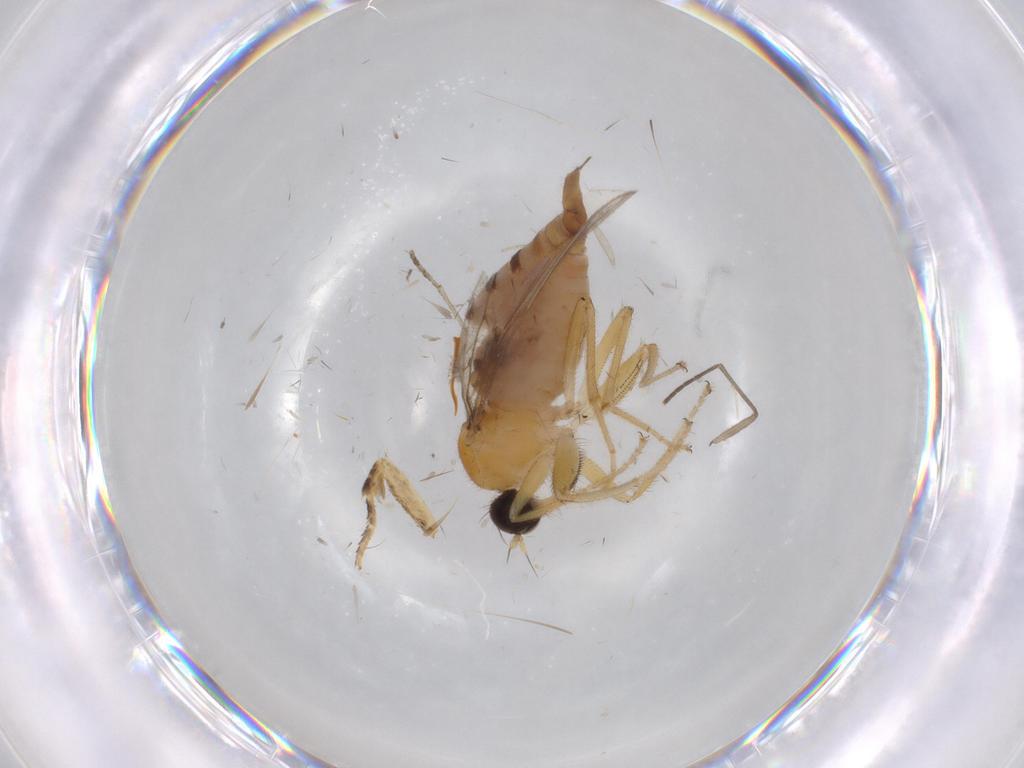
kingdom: Animalia
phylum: Arthropoda
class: Insecta
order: Diptera
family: Hybotidae
